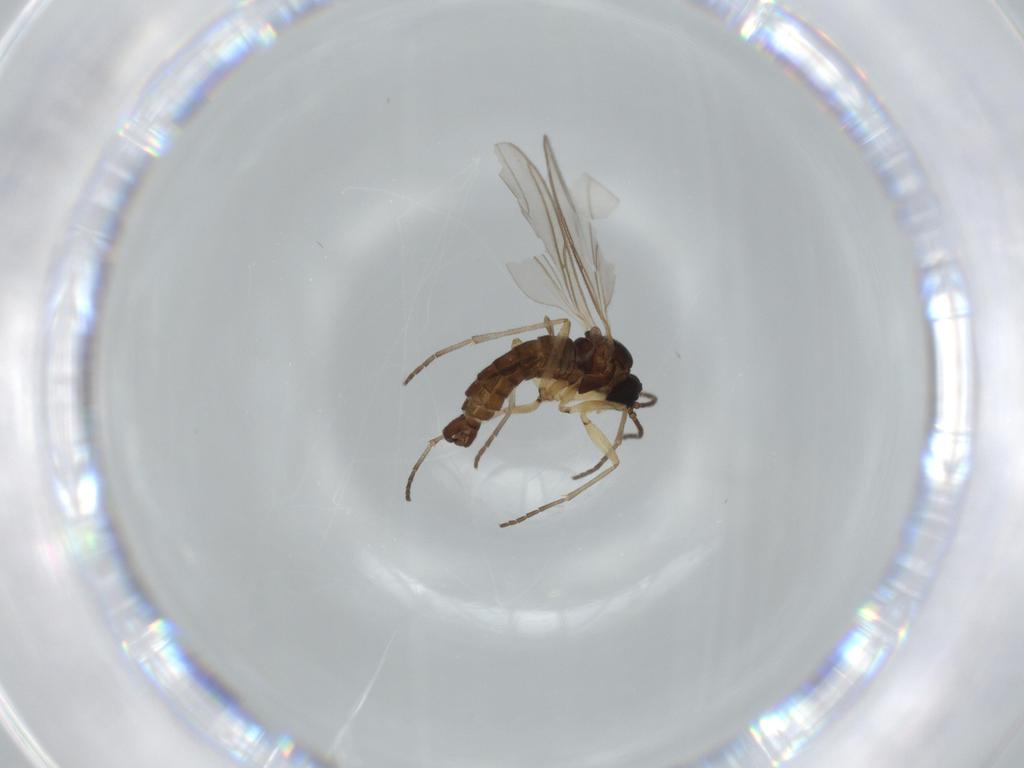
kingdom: Animalia
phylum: Arthropoda
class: Insecta
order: Diptera
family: Sciaridae
